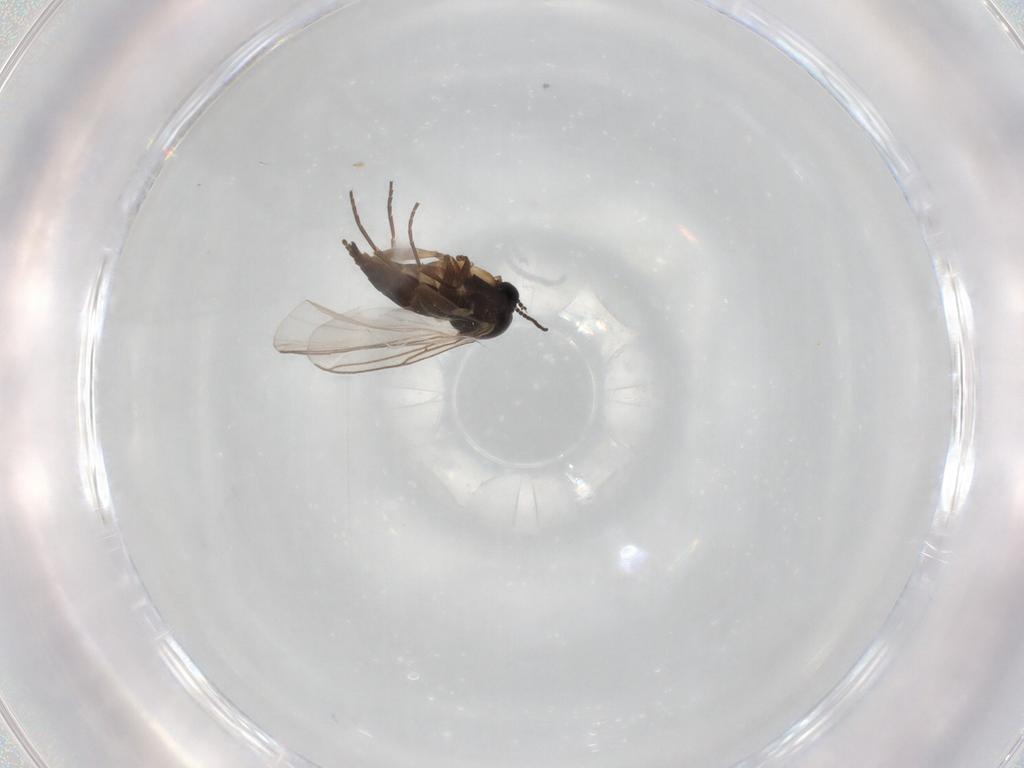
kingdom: Animalia
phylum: Arthropoda
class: Insecta
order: Diptera
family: Sciaridae
